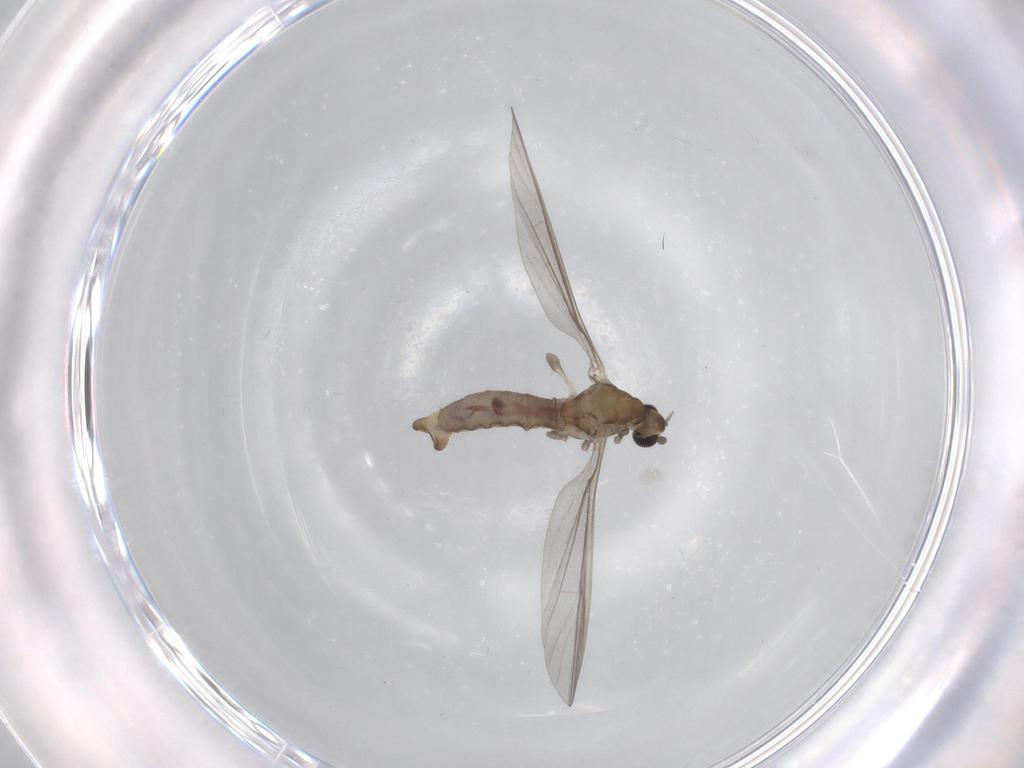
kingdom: Animalia
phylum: Arthropoda
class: Insecta
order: Diptera
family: Limoniidae
